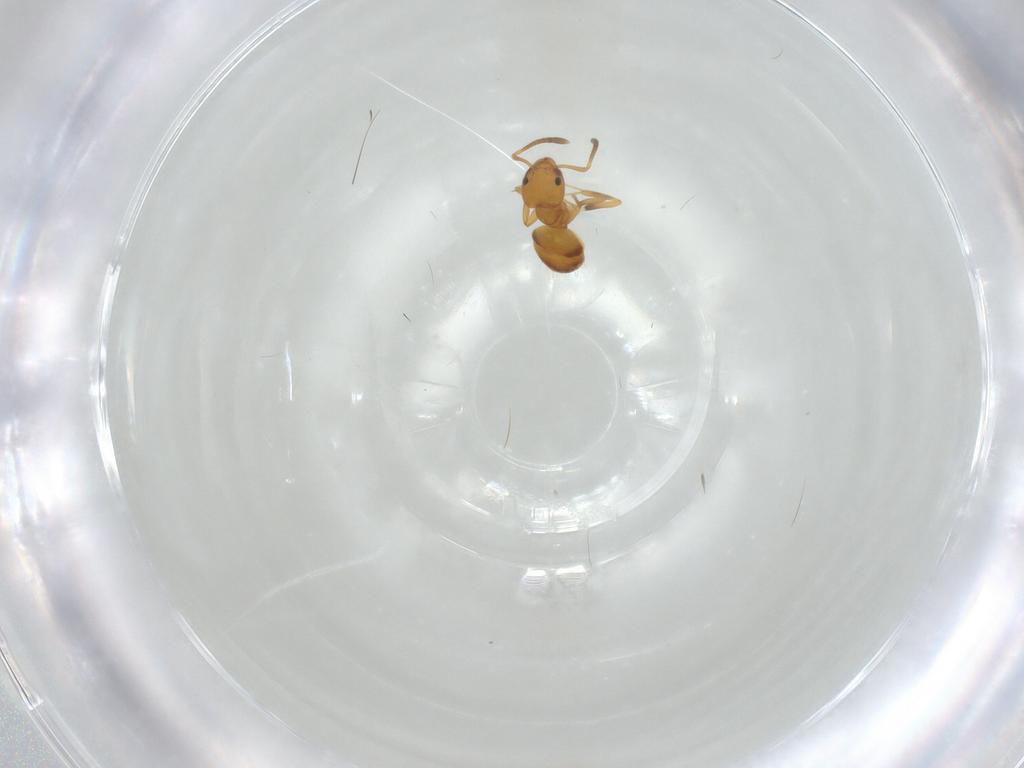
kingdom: Animalia
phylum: Arthropoda
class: Insecta
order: Hymenoptera
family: Formicidae
